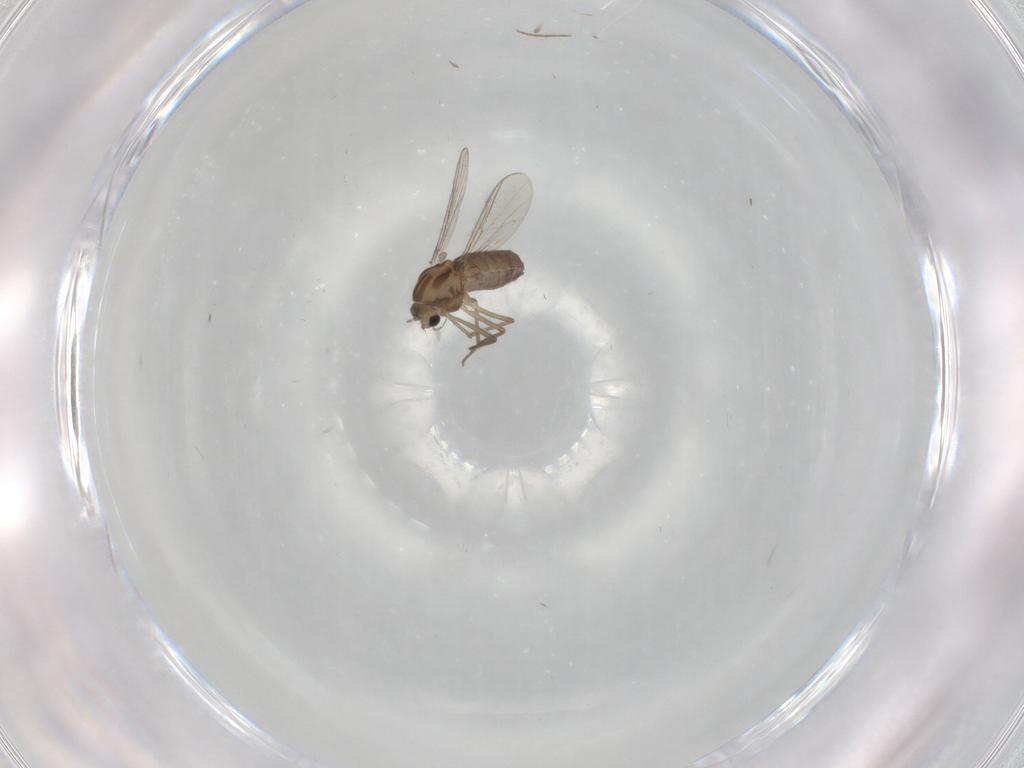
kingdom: Animalia
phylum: Arthropoda
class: Insecta
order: Diptera
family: Chironomidae
